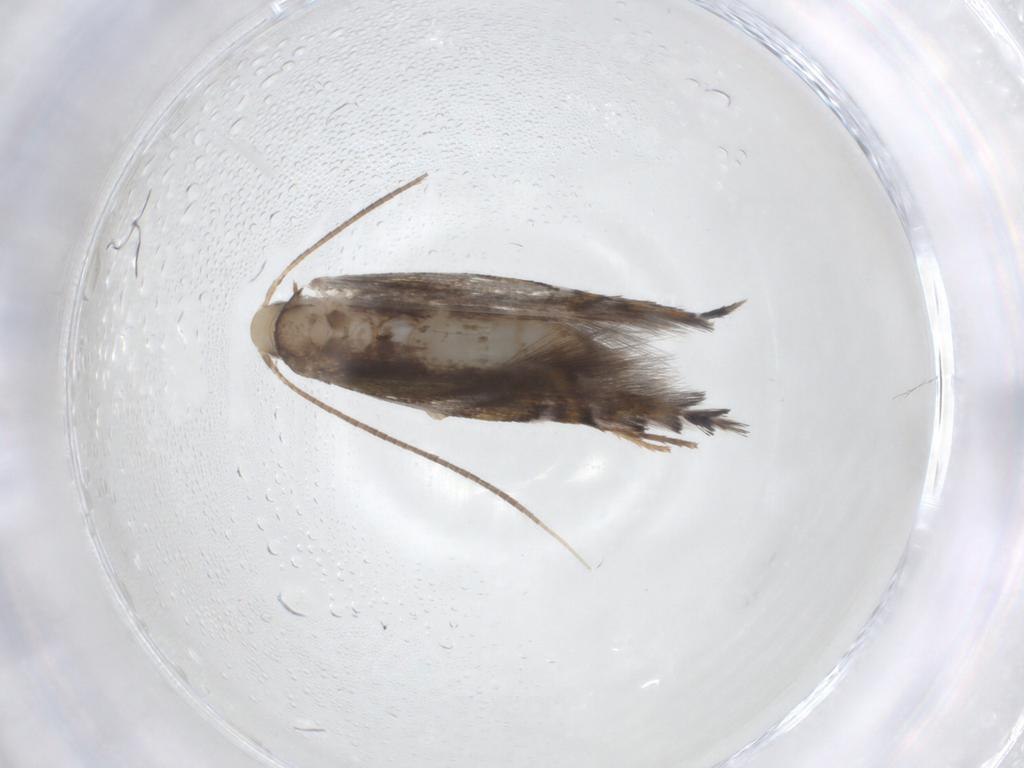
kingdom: Animalia
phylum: Arthropoda
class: Insecta
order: Lepidoptera
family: Gracillariidae
